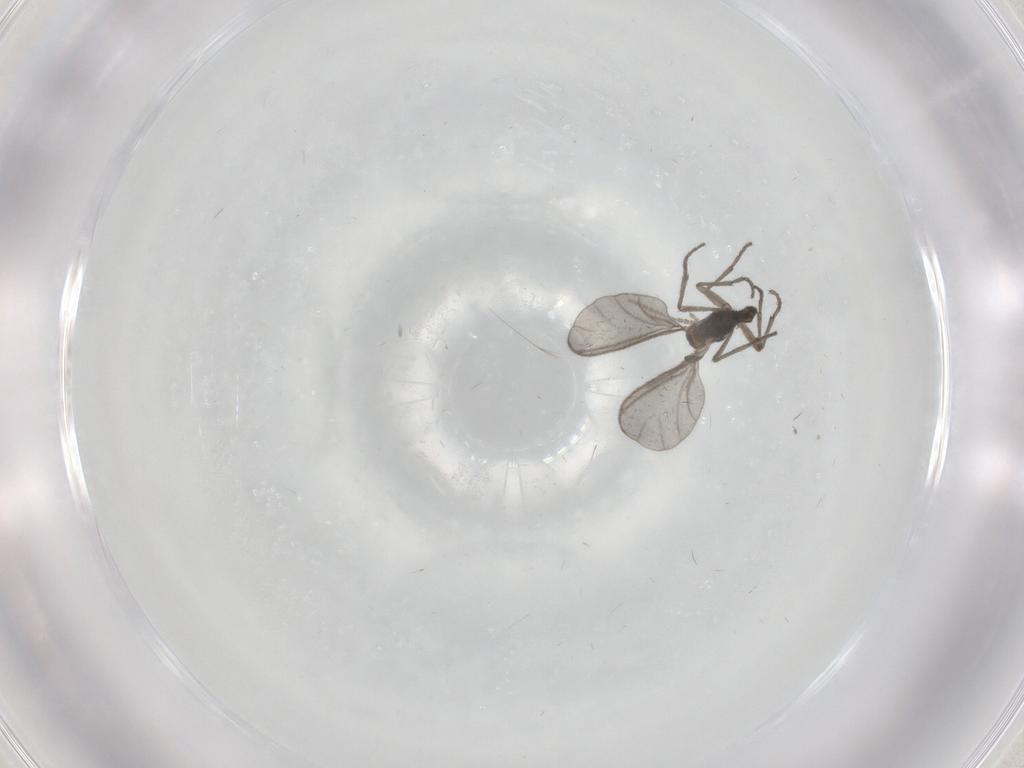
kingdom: Animalia
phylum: Arthropoda
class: Insecta
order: Diptera
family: Sciaridae
